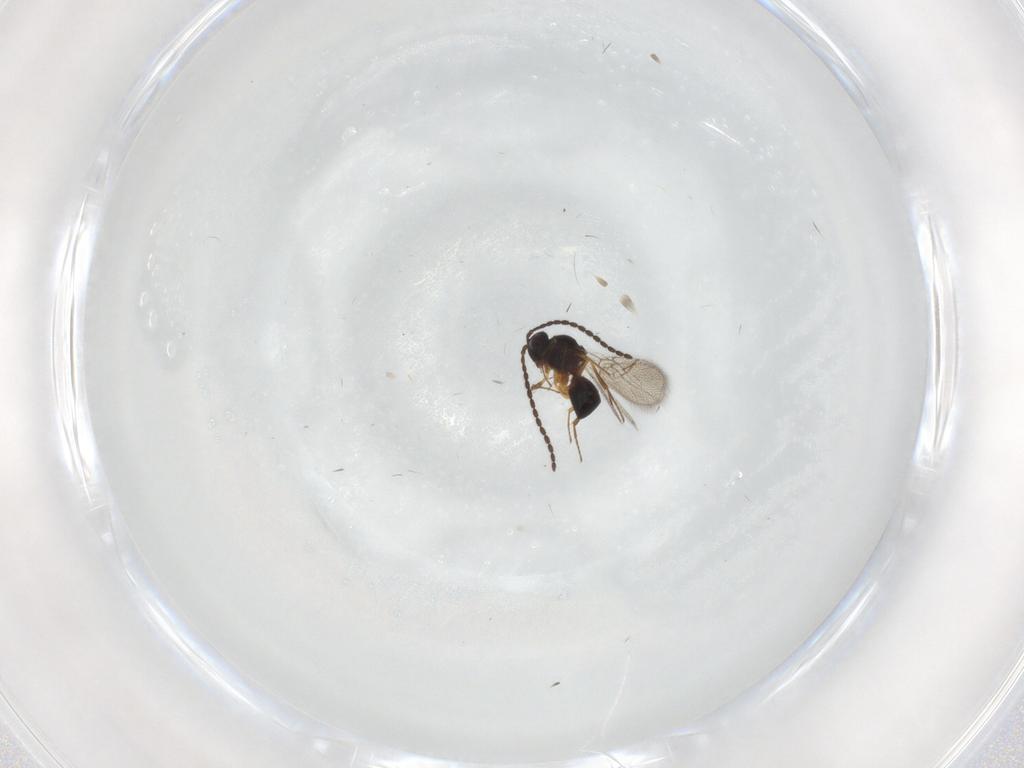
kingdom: Animalia
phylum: Arthropoda
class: Insecta
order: Hymenoptera
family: Figitidae
